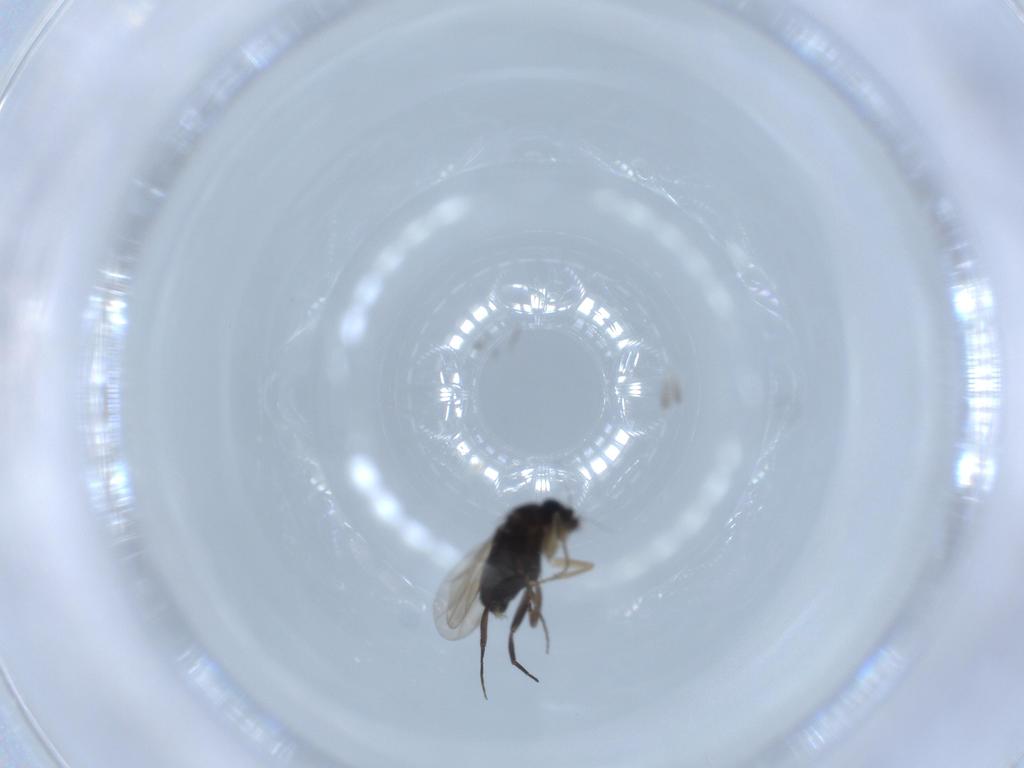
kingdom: Animalia
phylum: Arthropoda
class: Insecta
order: Diptera
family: Phoridae
